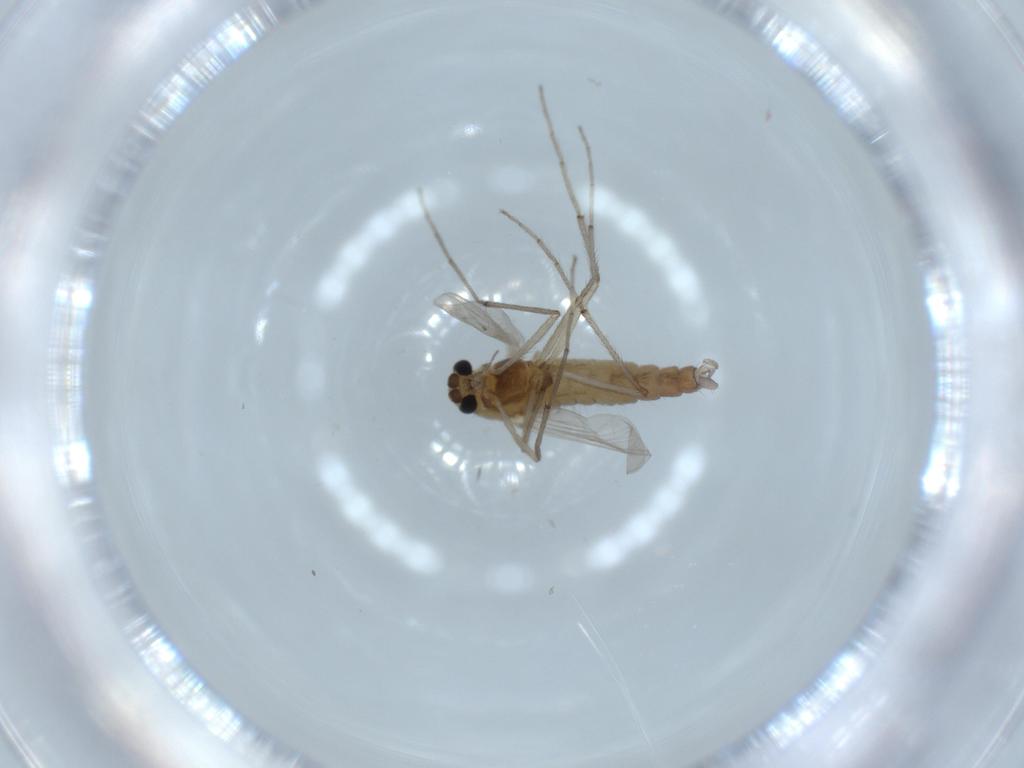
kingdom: Animalia
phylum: Arthropoda
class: Insecta
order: Diptera
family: Chironomidae
